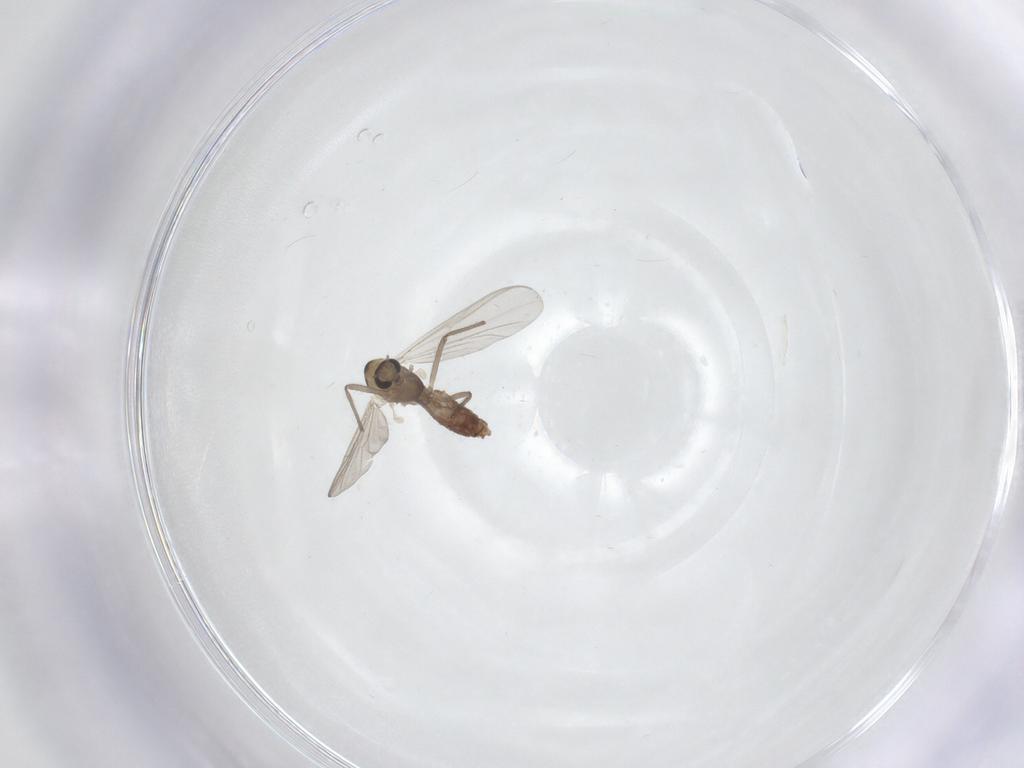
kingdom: Animalia
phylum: Arthropoda
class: Insecta
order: Diptera
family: Chironomidae
